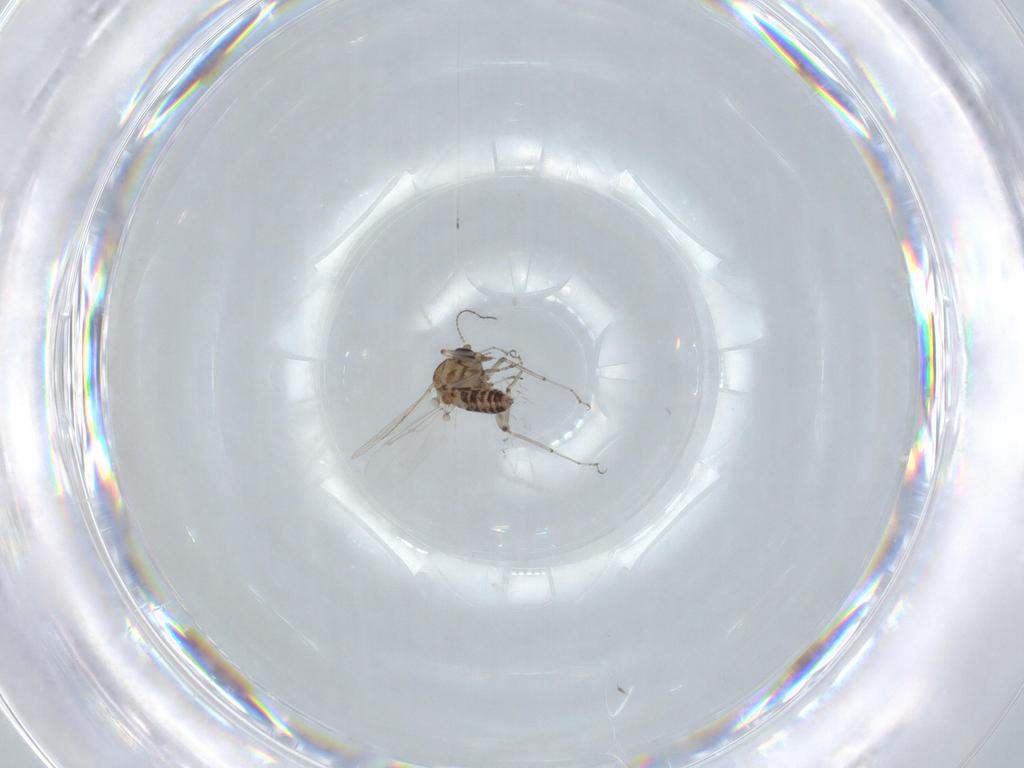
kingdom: Animalia
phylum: Arthropoda
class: Insecta
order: Diptera
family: Ceratopogonidae
